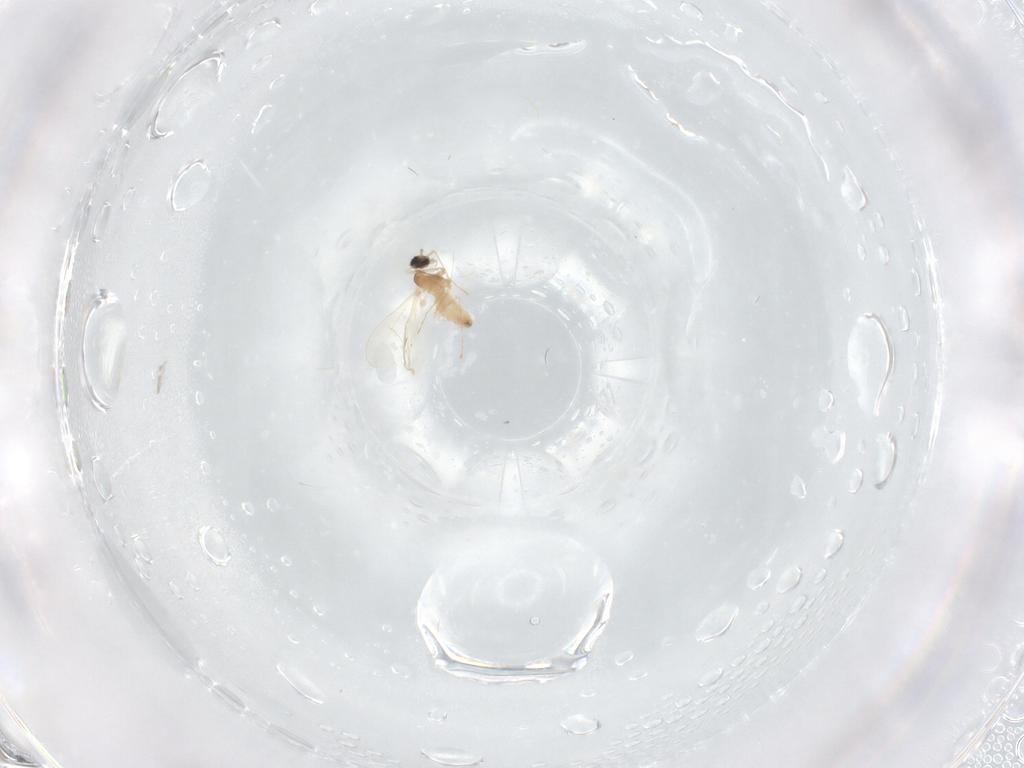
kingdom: Animalia
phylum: Arthropoda
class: Insecta
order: Diptera
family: Cecidomyiidae
